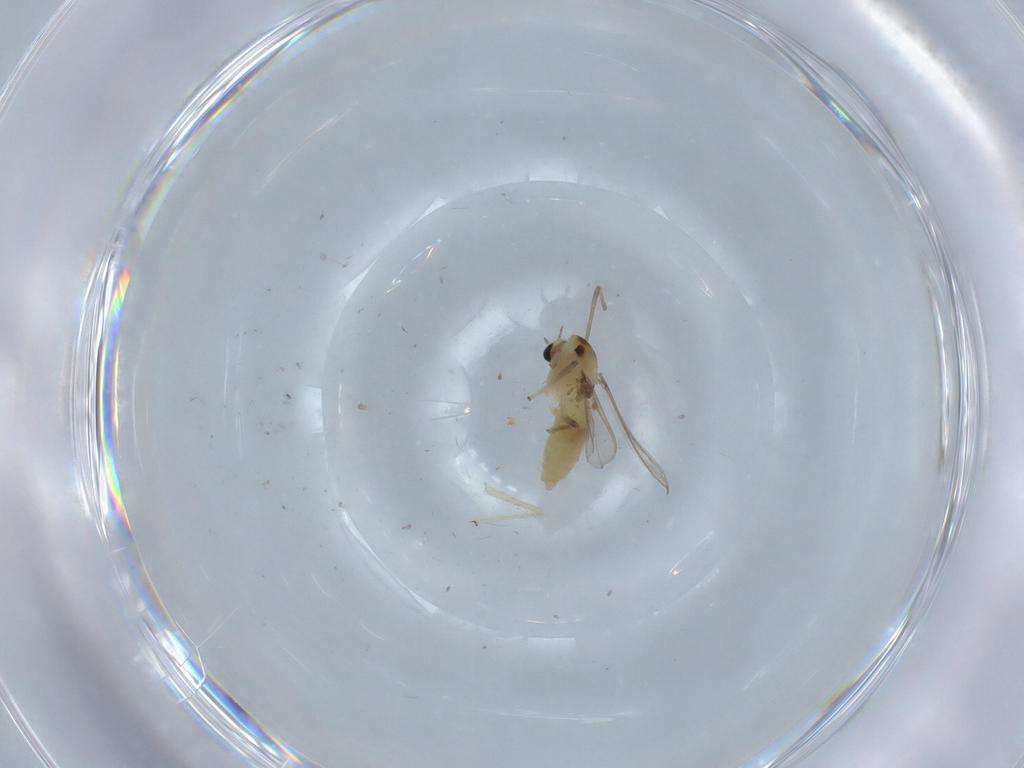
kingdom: Animalia
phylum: Arthropoda
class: Insecta
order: Diptera
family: Chironomidae
